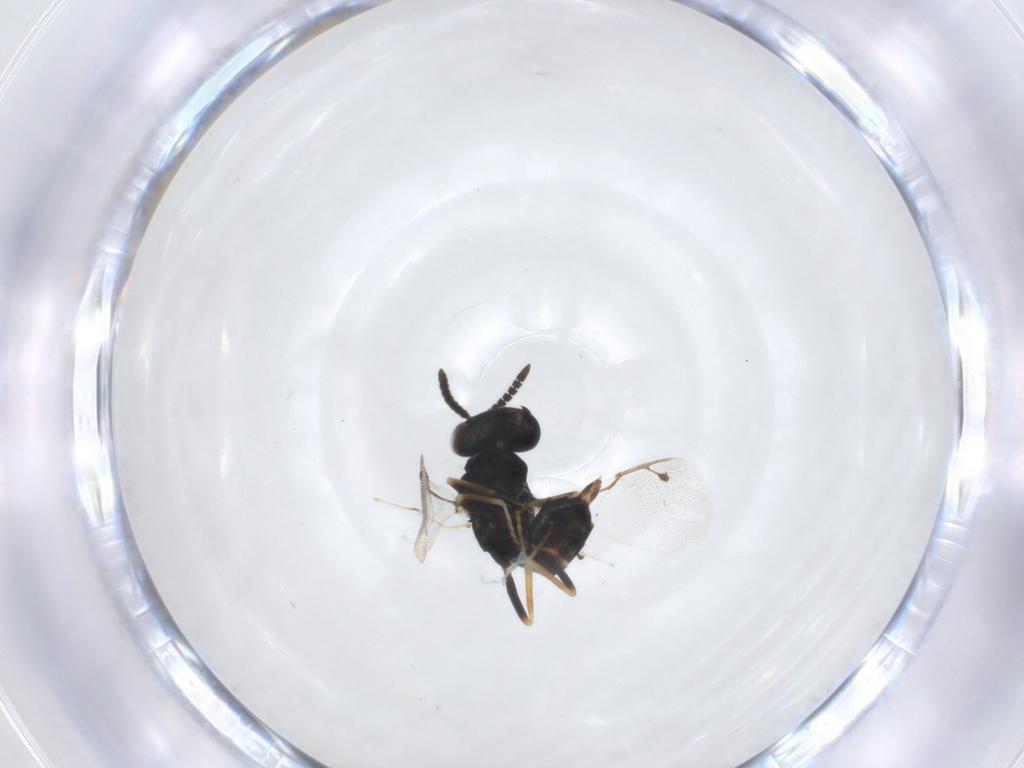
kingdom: Animalia
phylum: Arthropoda
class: Insecta
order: Hymenoptera
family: Pteromalidae
